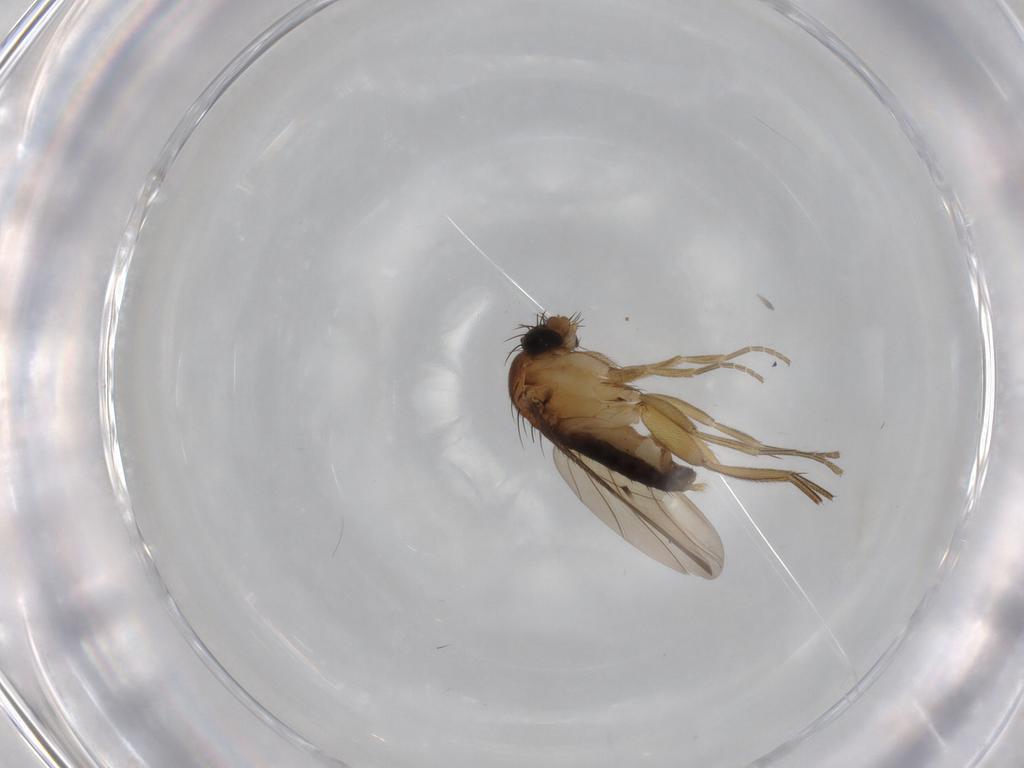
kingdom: Animalia
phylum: Arthropoda
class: Insecta
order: Diptera
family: Phoridae
